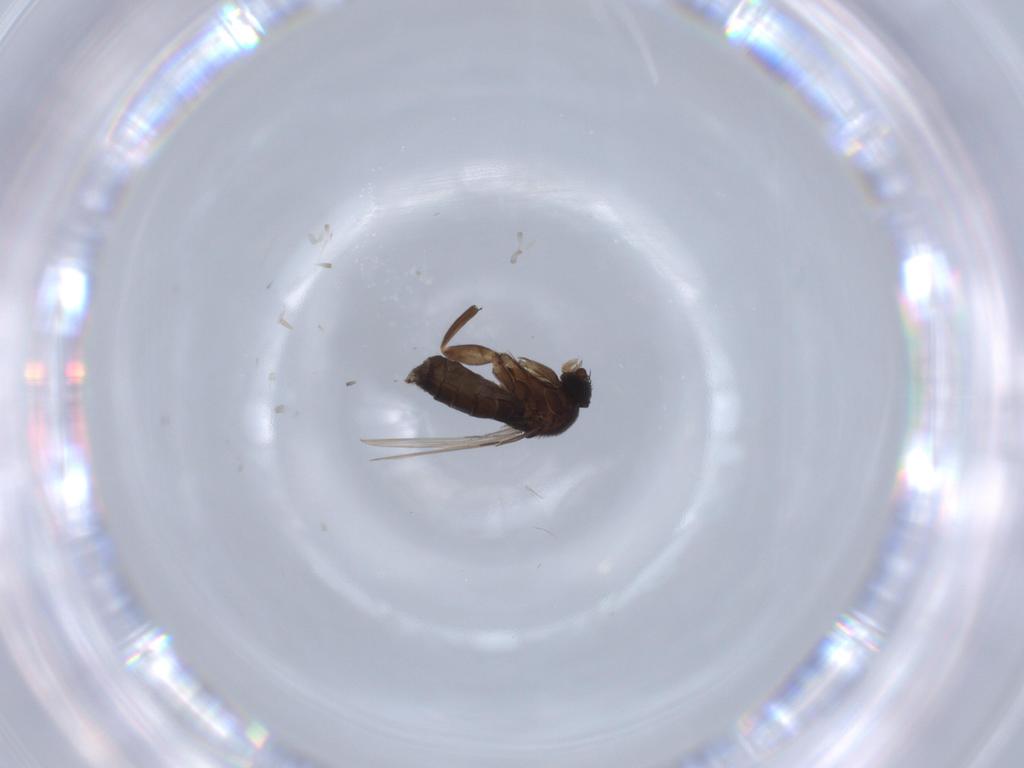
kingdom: Animalia
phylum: Arthropoda
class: Insecta
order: Diptera
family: Phoridae
